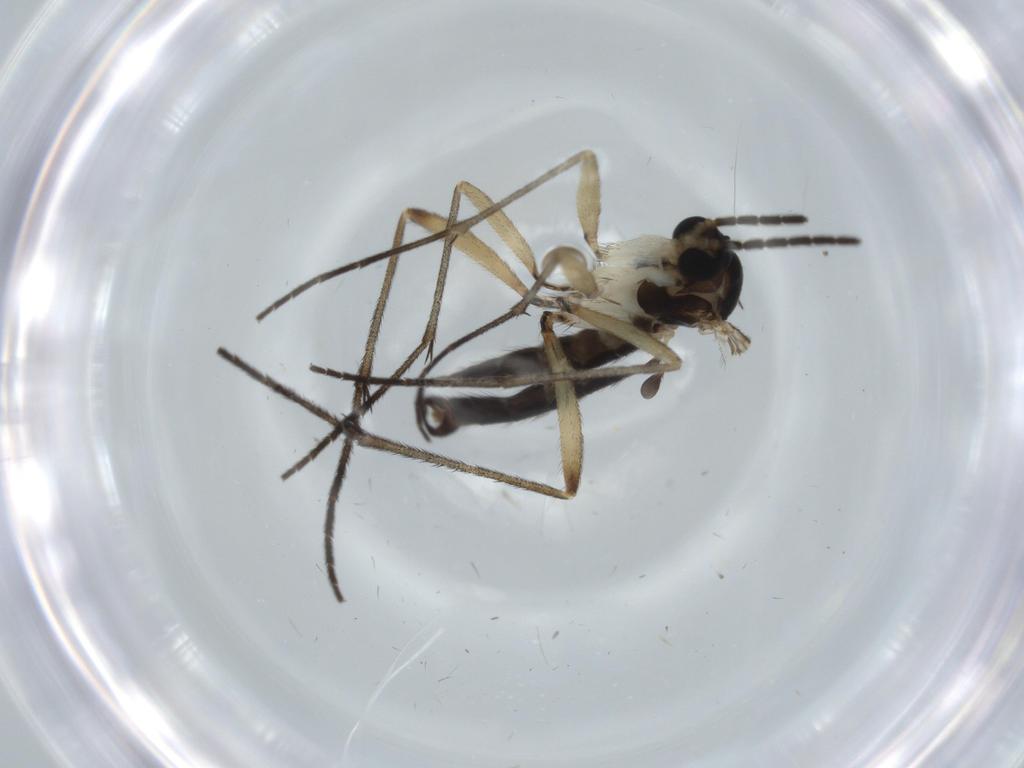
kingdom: Animalia
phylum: Arthropoda
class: Insecta
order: Diptera
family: Sciaridae
